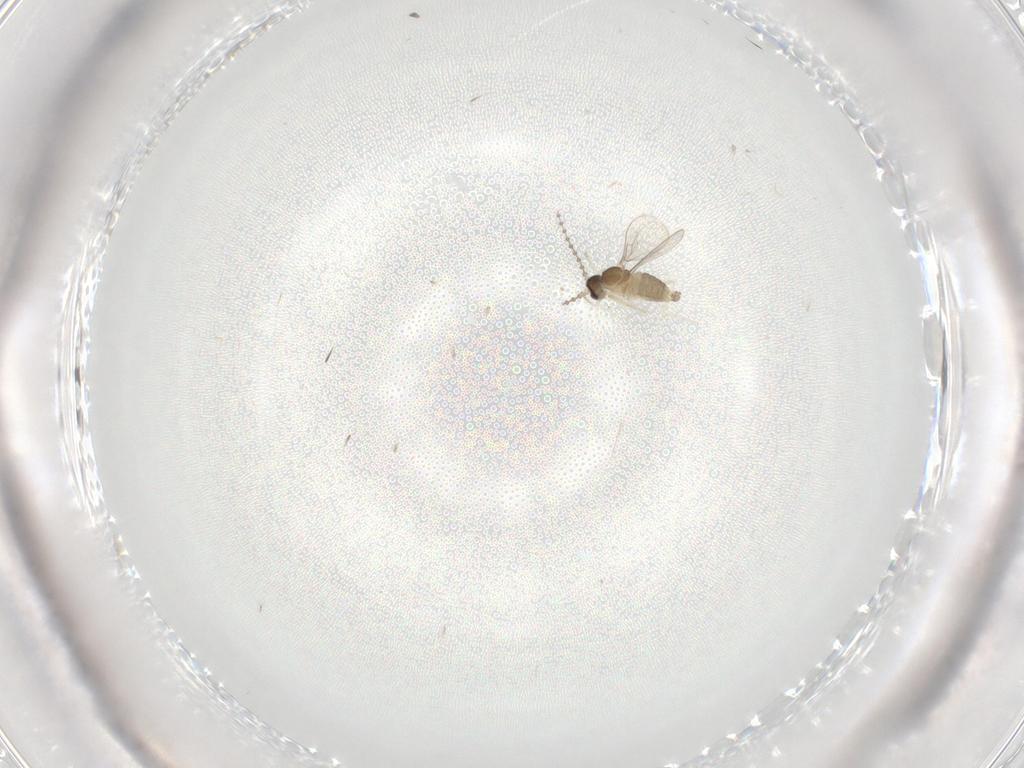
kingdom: Animalia
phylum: Arthropoda
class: Insecta
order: Diptera
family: Cecidomyiidae
